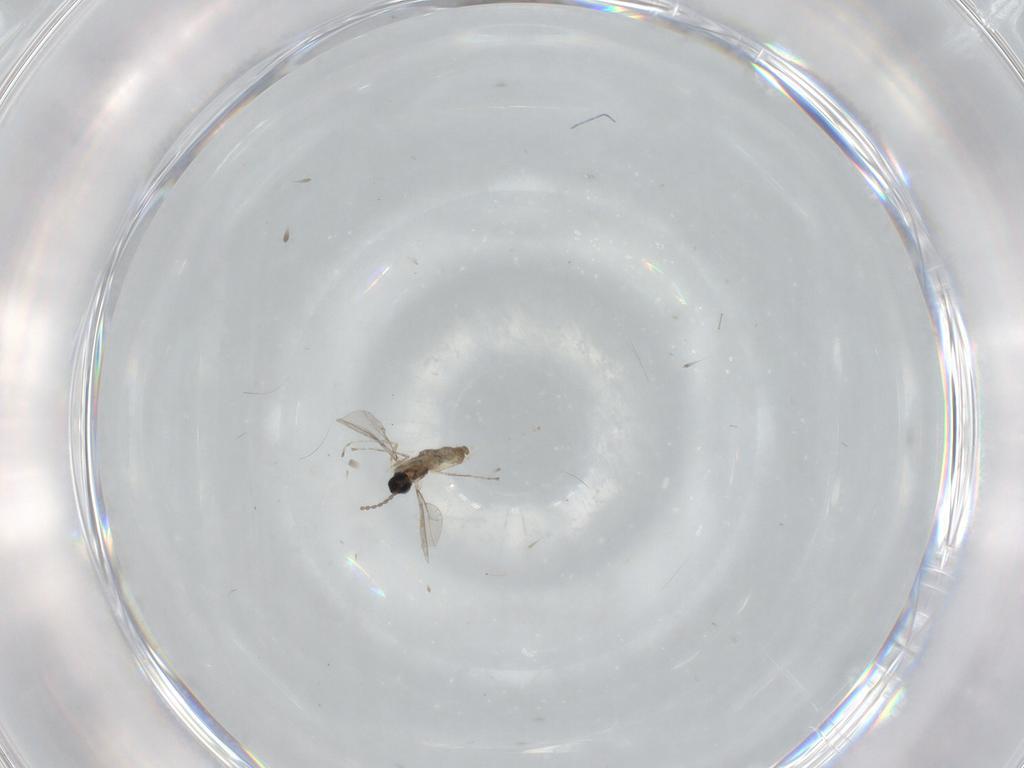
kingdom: Animalia
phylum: Arthropoda
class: Insecta
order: Diptera
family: Cecidomyiidae
